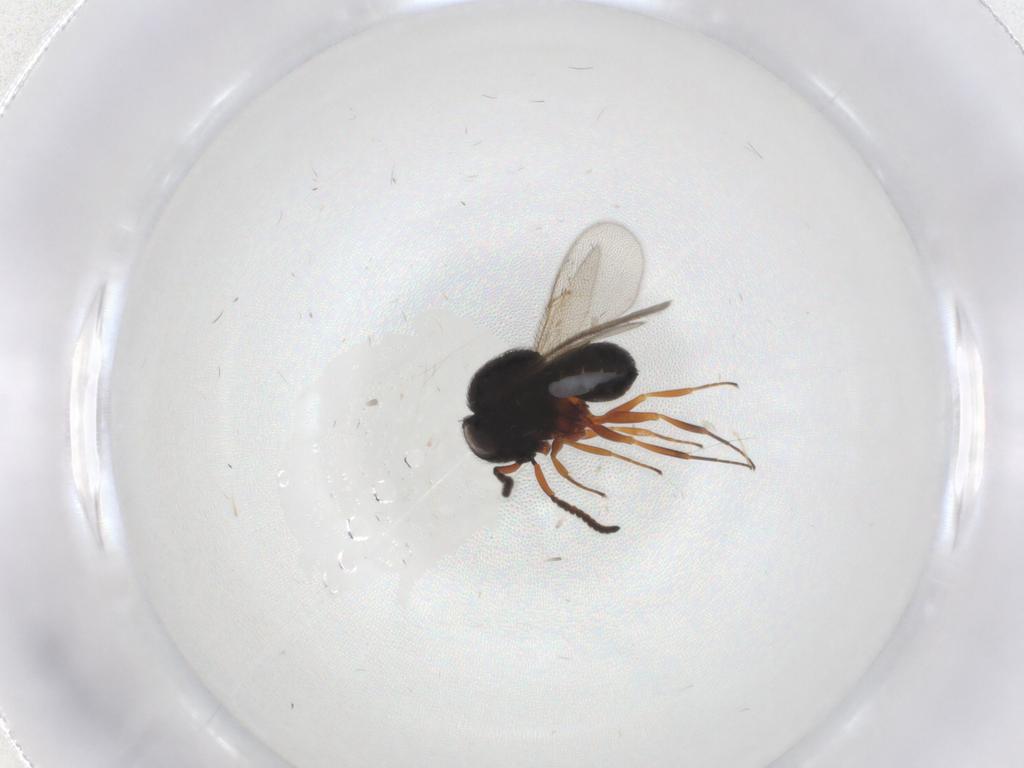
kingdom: Animalia
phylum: Arthropoda
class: Insecta
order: Hymenoptera
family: Scelionidae
